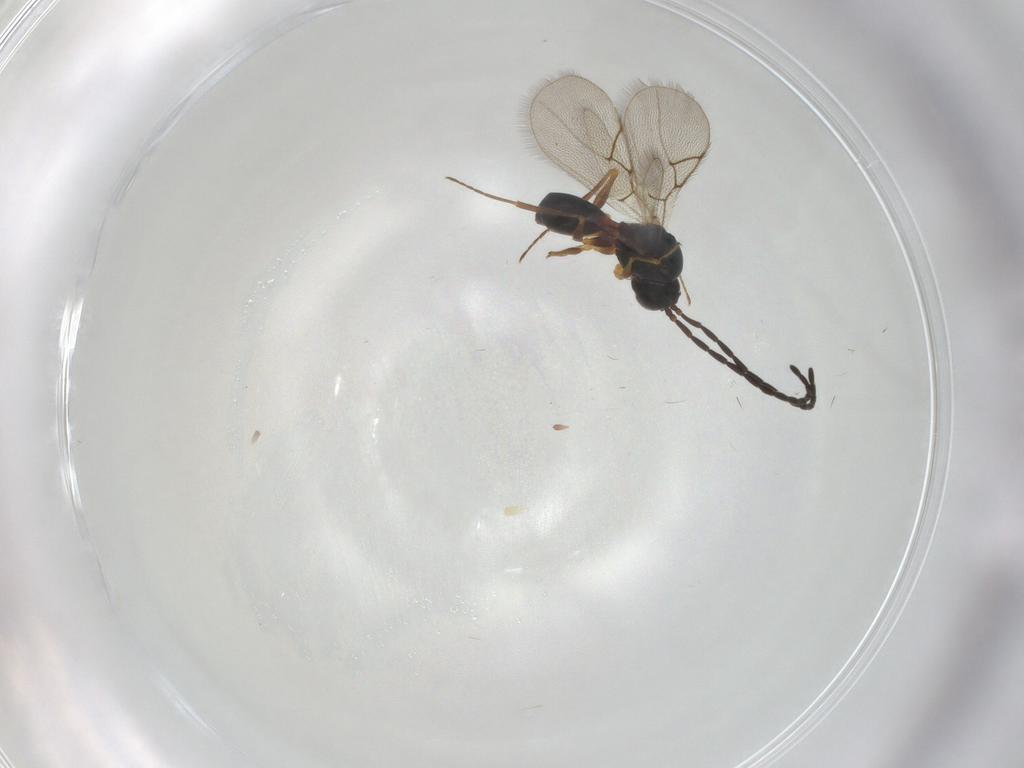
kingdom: Animalia
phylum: Arthropoda
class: Insecta
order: Hymenoptera
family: Figitidae
